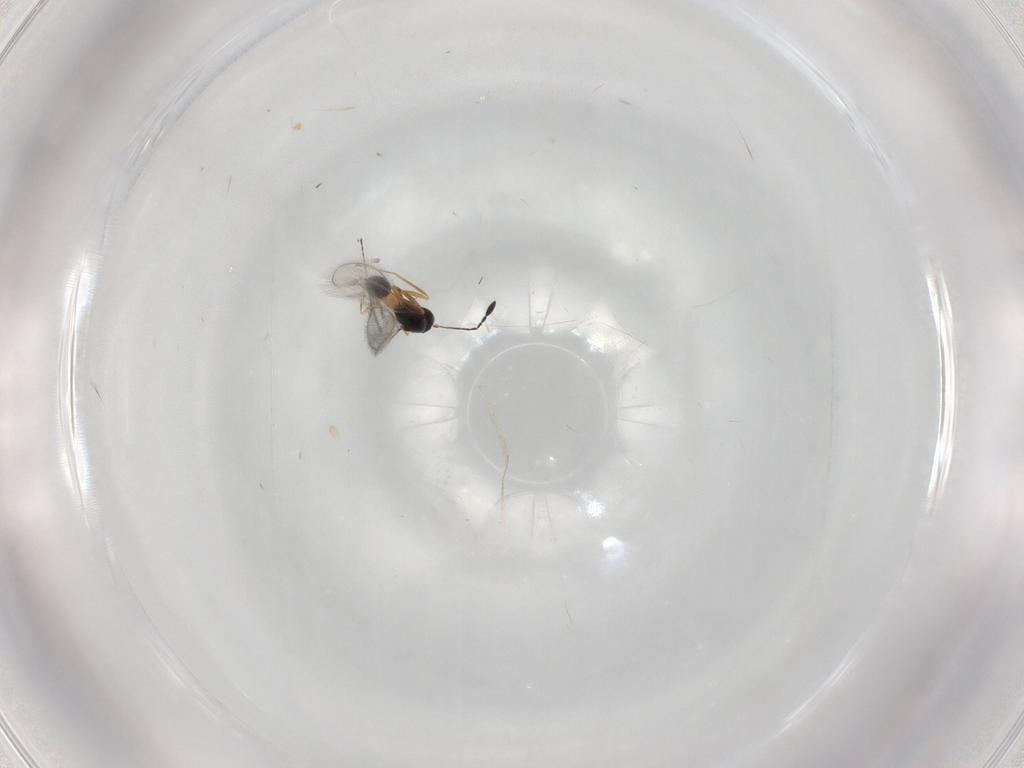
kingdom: Animalia
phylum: Arthropoda
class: Insecta
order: Hymenoptera
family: Mymaridae
